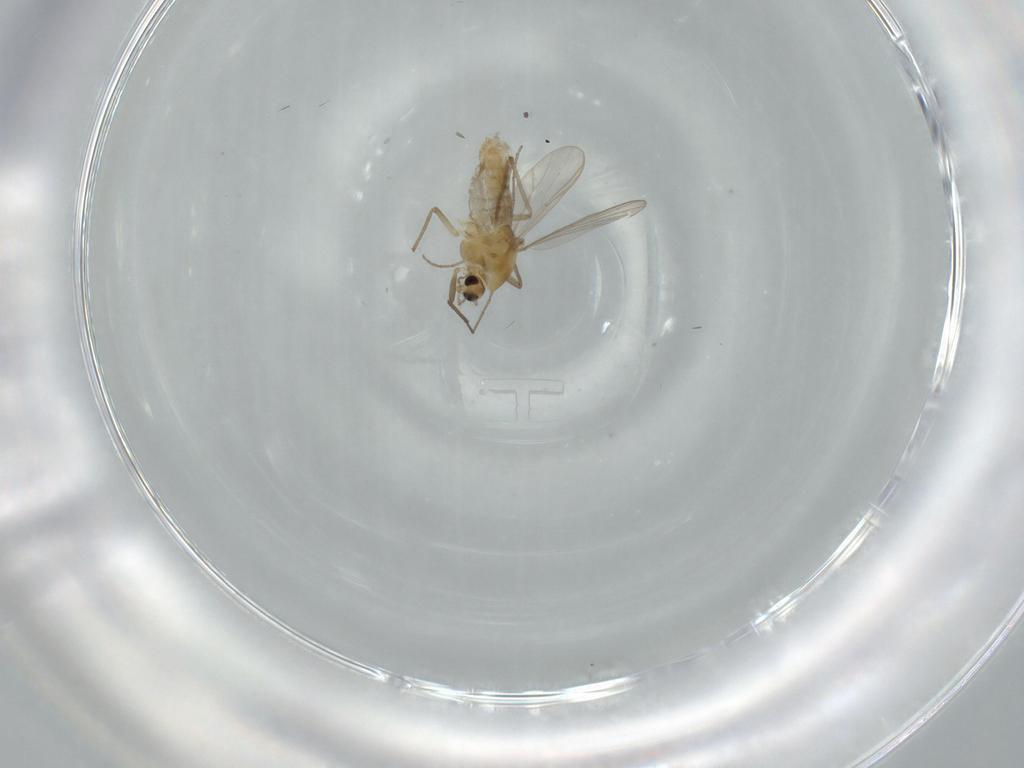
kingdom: Animalia
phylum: Arthropoda
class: Insecta
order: Diptera
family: Chironomidae
